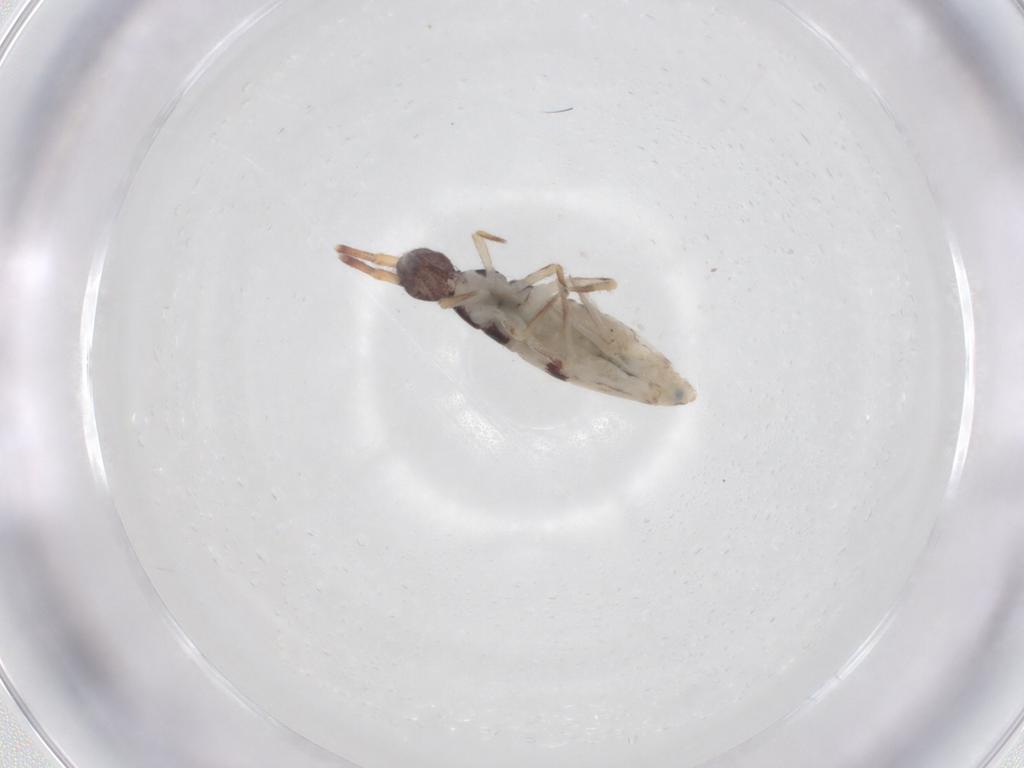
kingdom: Animalia
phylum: Arthropoda
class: Collembola
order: Entomobryomorpha
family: Entomobryidae
